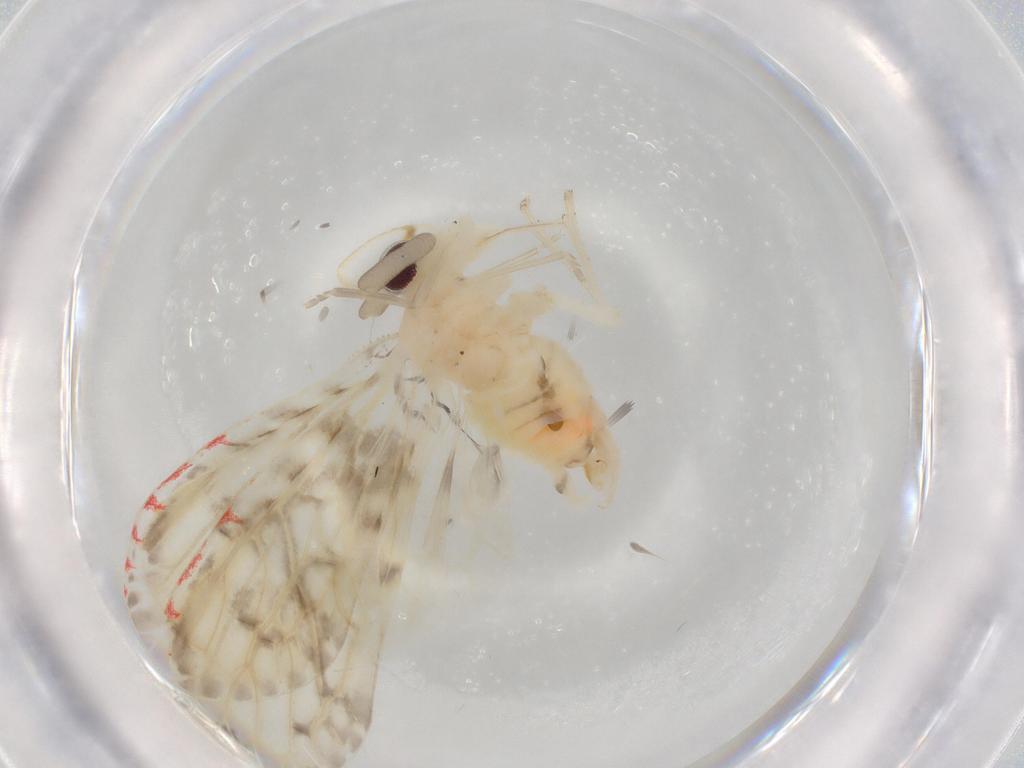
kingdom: Animalia
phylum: Arthropoda
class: Insecta
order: Hemiptera
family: Derbidae
